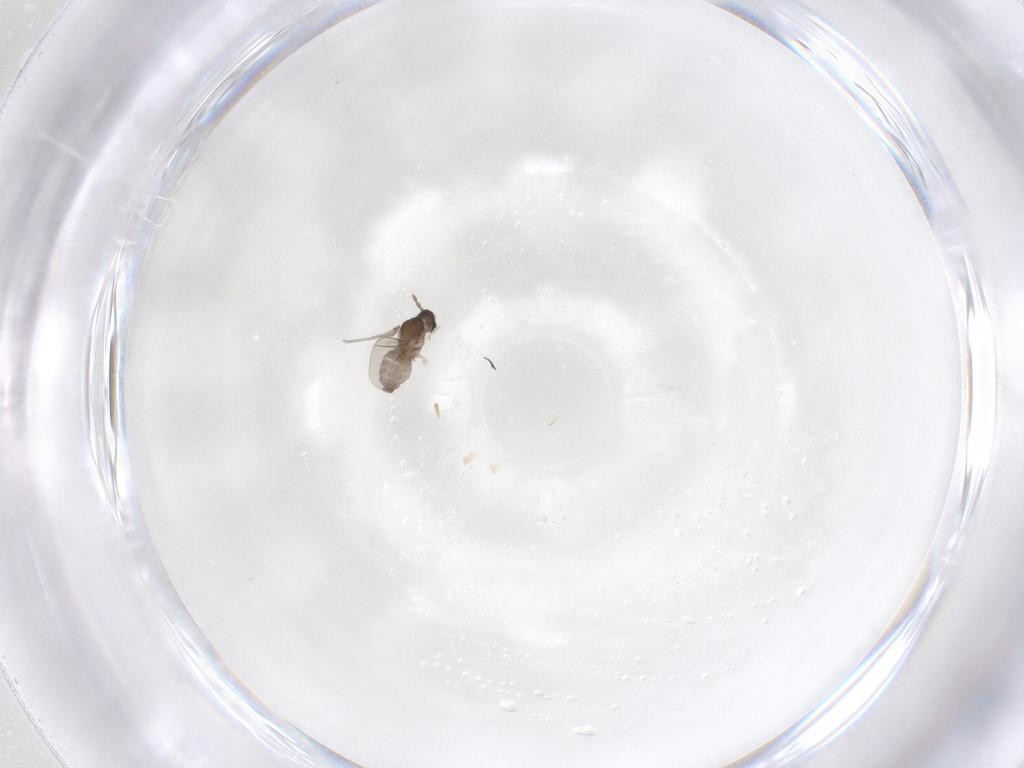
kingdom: Animalia
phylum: Arthropoda
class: Insecta
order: Diptera
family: Cecidomyiidae
